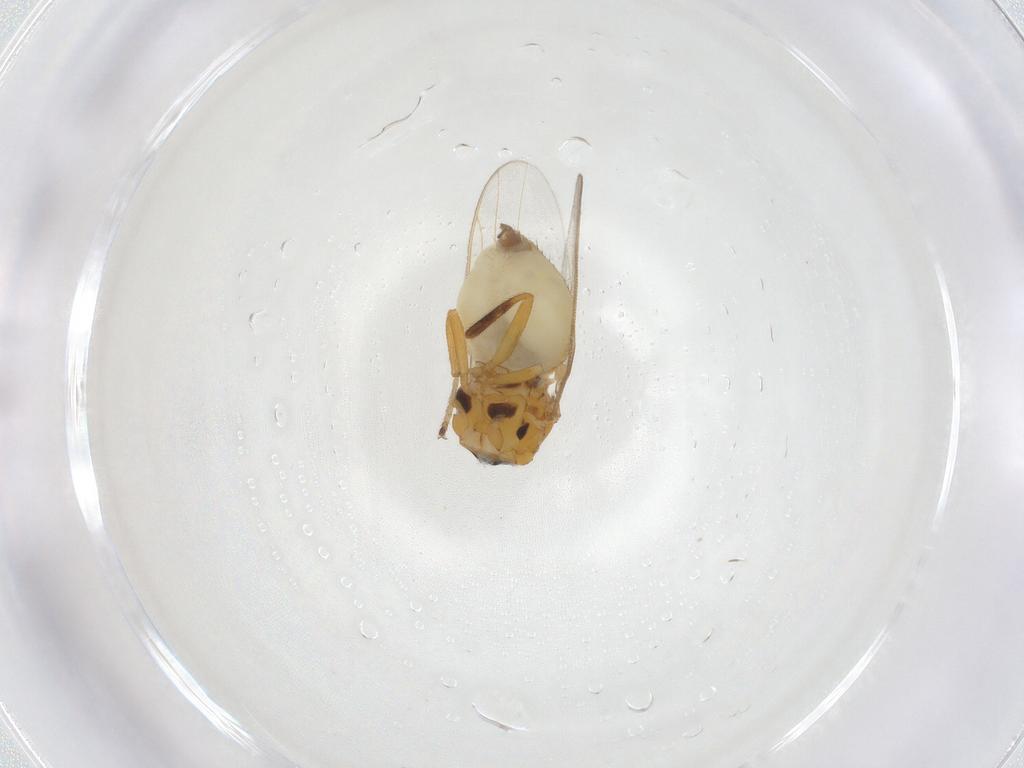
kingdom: Animalia
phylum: Arthropoda
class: Insecta
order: Diptera
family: Chloropidae
